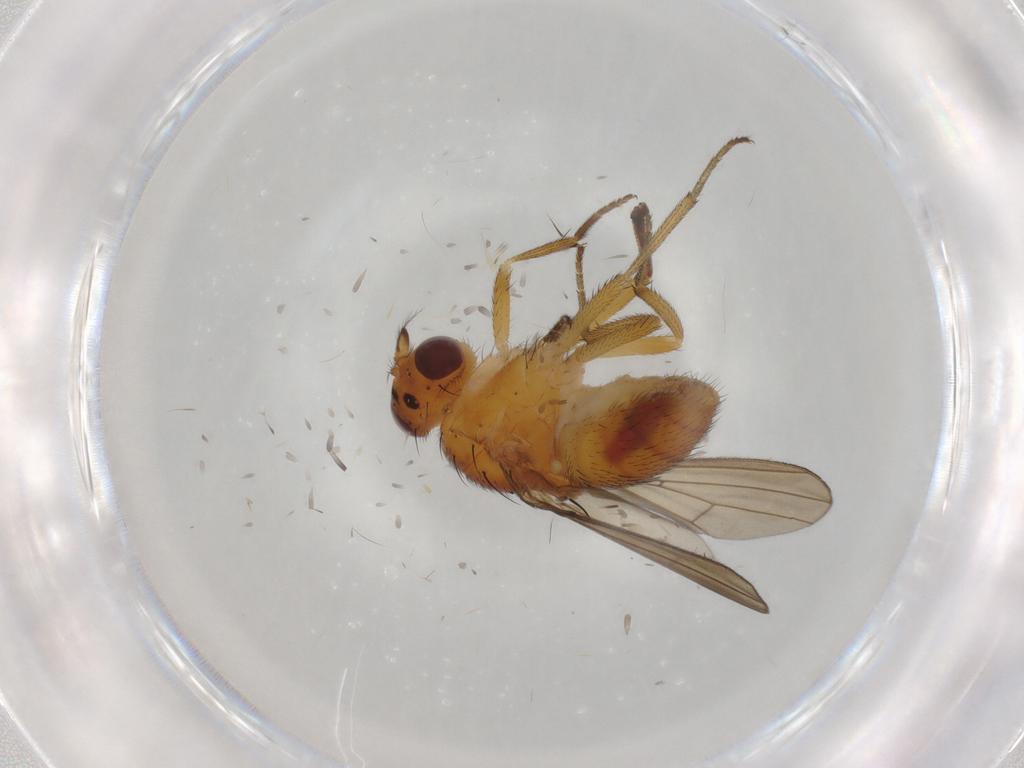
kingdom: Animalia
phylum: Arthropoda
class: Insecta
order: Diptera
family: Lauxaniidae
